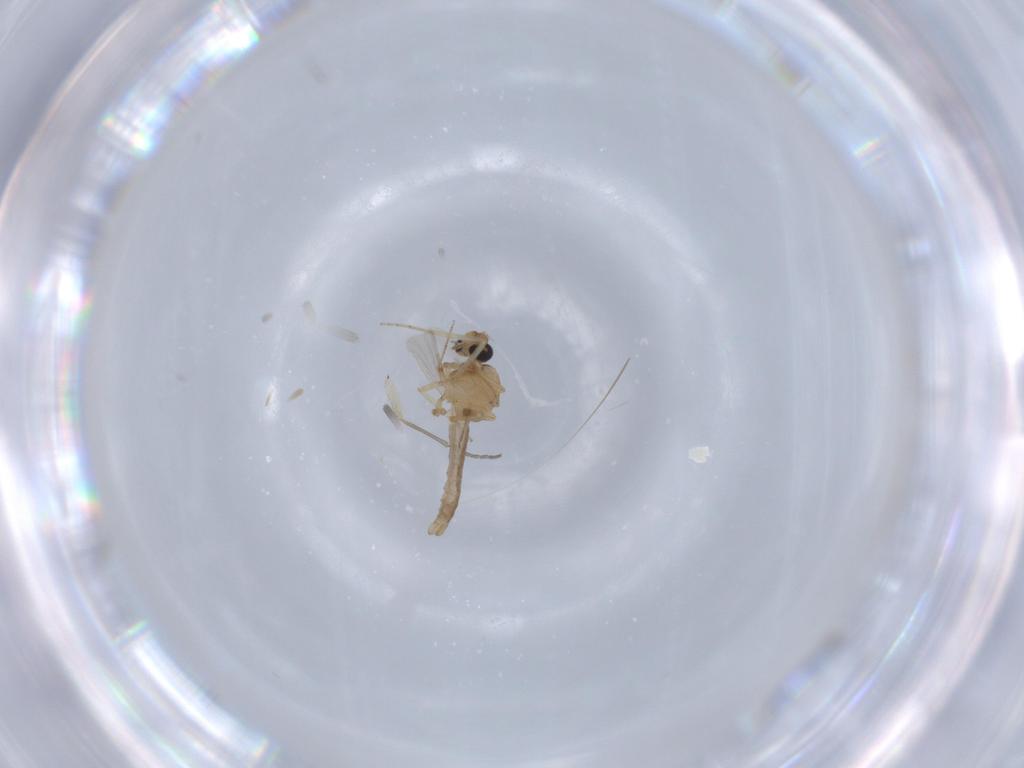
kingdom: Animalia
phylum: Arthropoda
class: Insecta
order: Diptera
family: Ceratopogonidae
